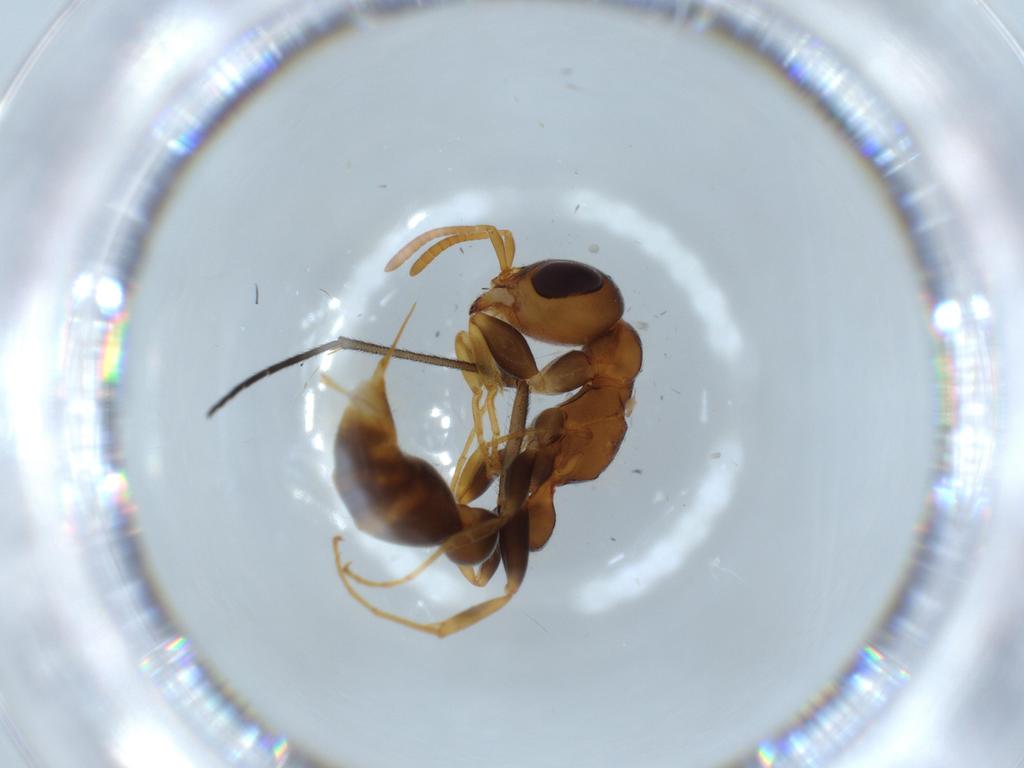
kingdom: Animalia
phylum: Arthropoda
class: Insecta
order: Hymenoptera
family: Formicidae
